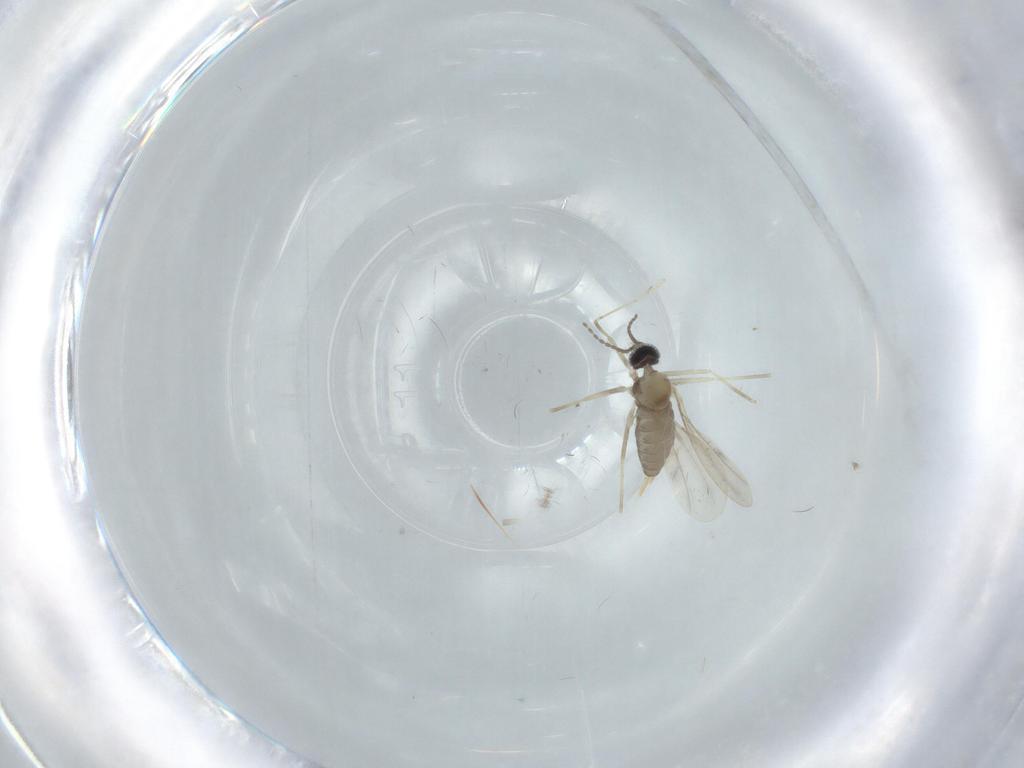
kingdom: Animalia
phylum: Arthropoda
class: Insecta
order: Diptera
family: Cecidomyiidae
